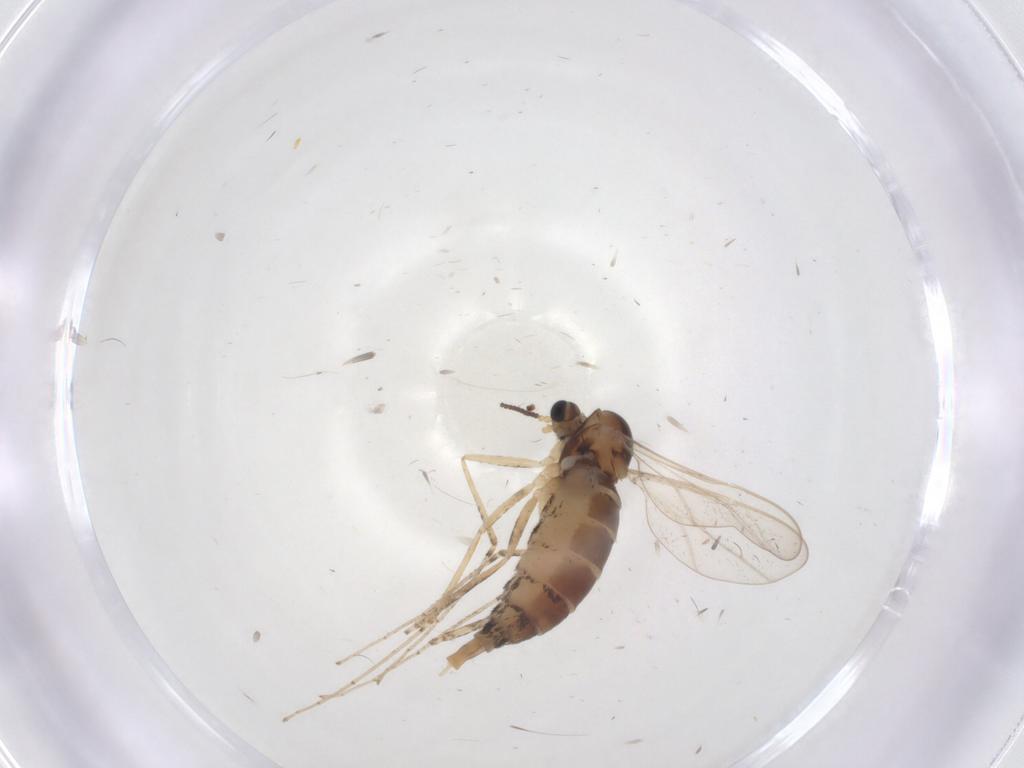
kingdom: Animalia
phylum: Arthropoda
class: Insecta
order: Diptera
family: Cecidomyiidae
